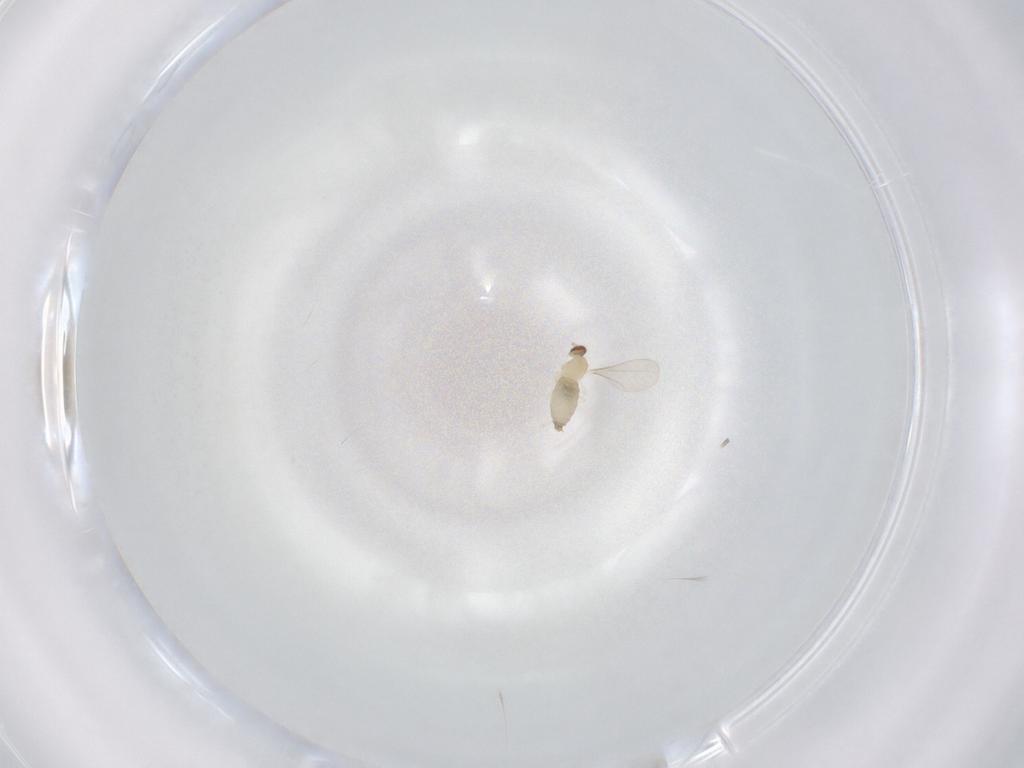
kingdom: Animalia
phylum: Arthropoda
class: Insecta
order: Diptera
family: Cecidomyiidae
